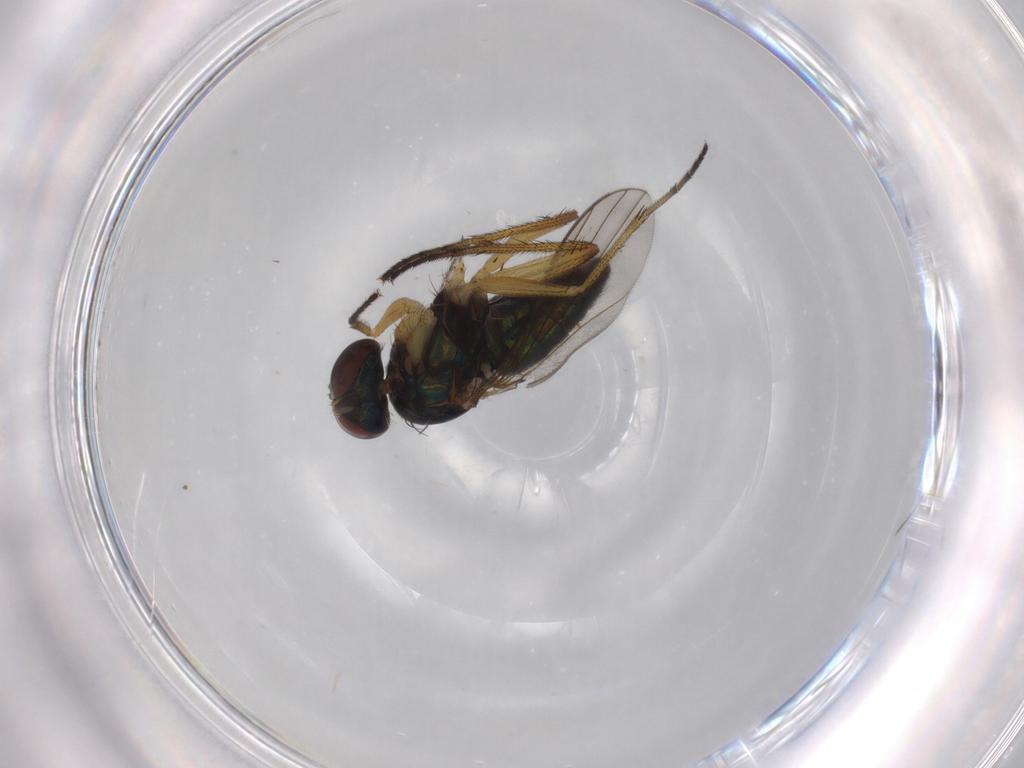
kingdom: Animalia
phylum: Arthropoda
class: Insecta
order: Diptera
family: Dolichopodidae
